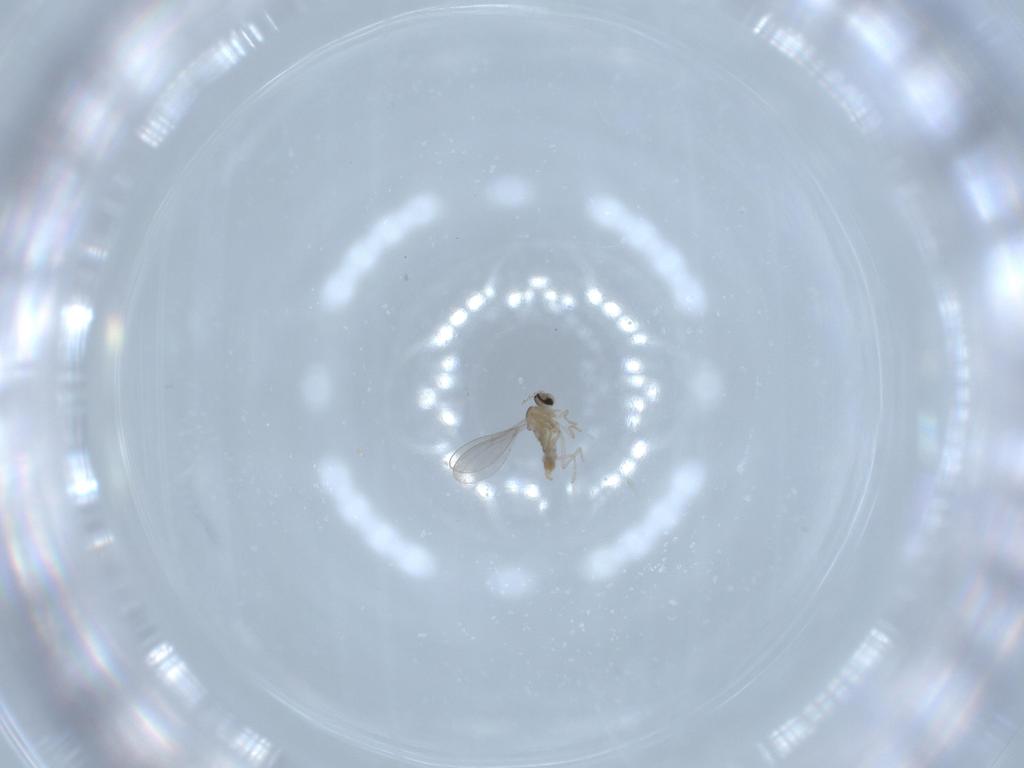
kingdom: Animalia
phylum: Arthropoda
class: Insecta
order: Diptera
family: Cecidomyiidae
